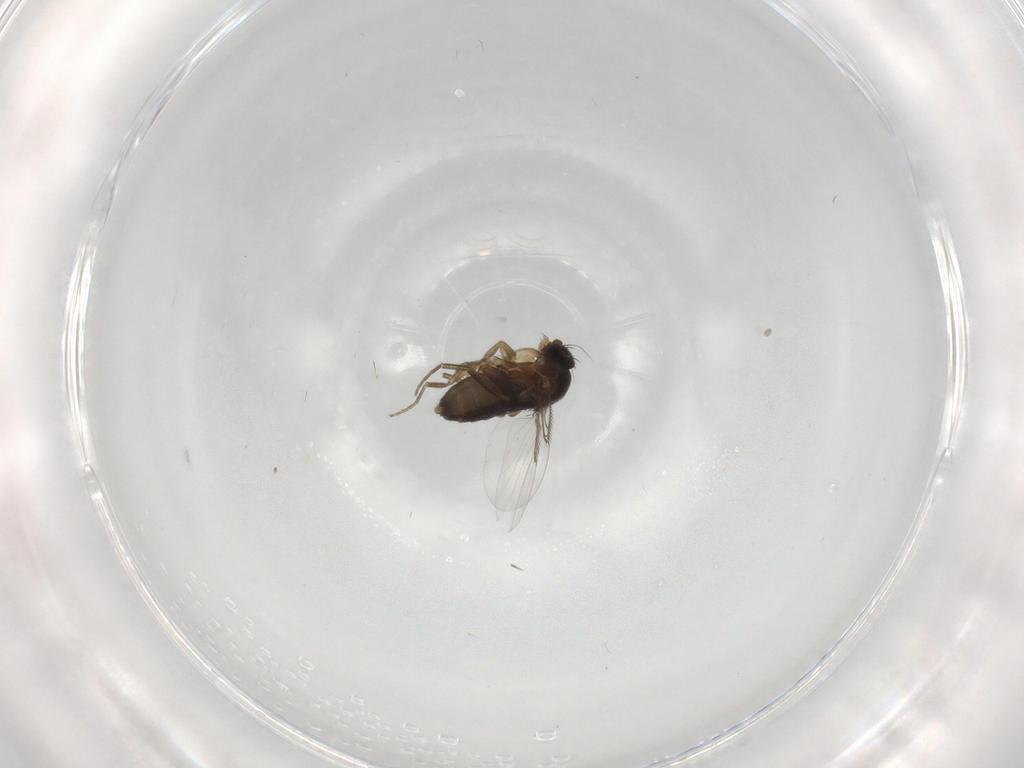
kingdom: Animalia
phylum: Arthropoda
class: Insecta
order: Diptera
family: Phoridae
